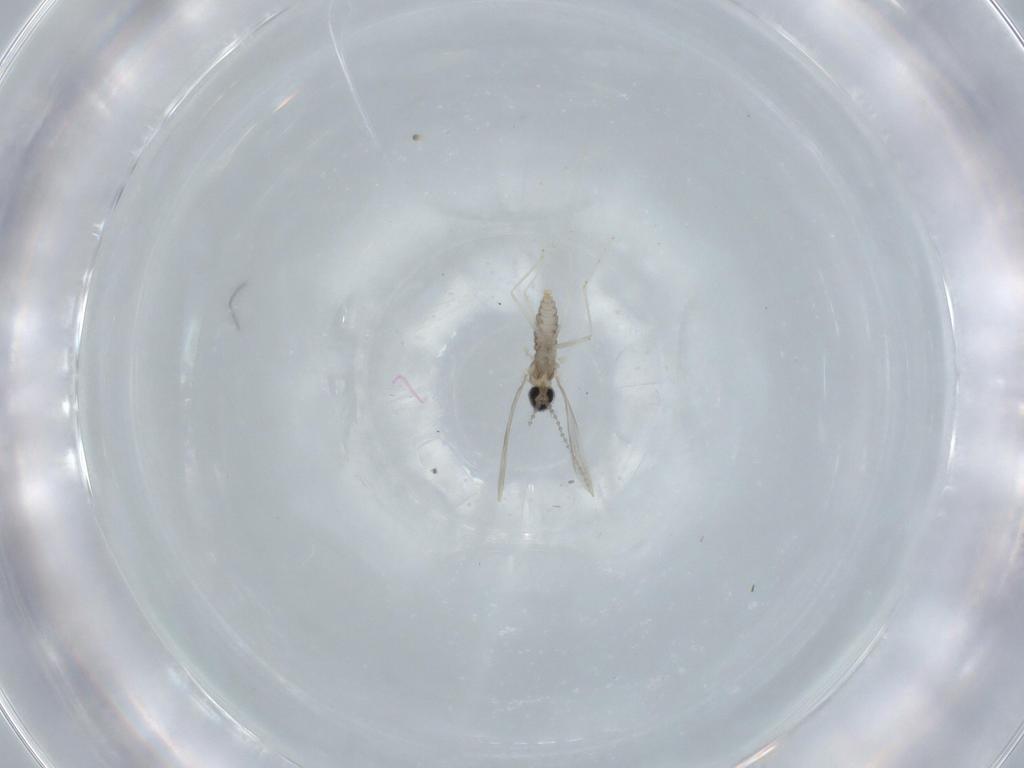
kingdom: Animalia
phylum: Arthropoda
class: Insecta
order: Diptera
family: Cecidomyiidae
